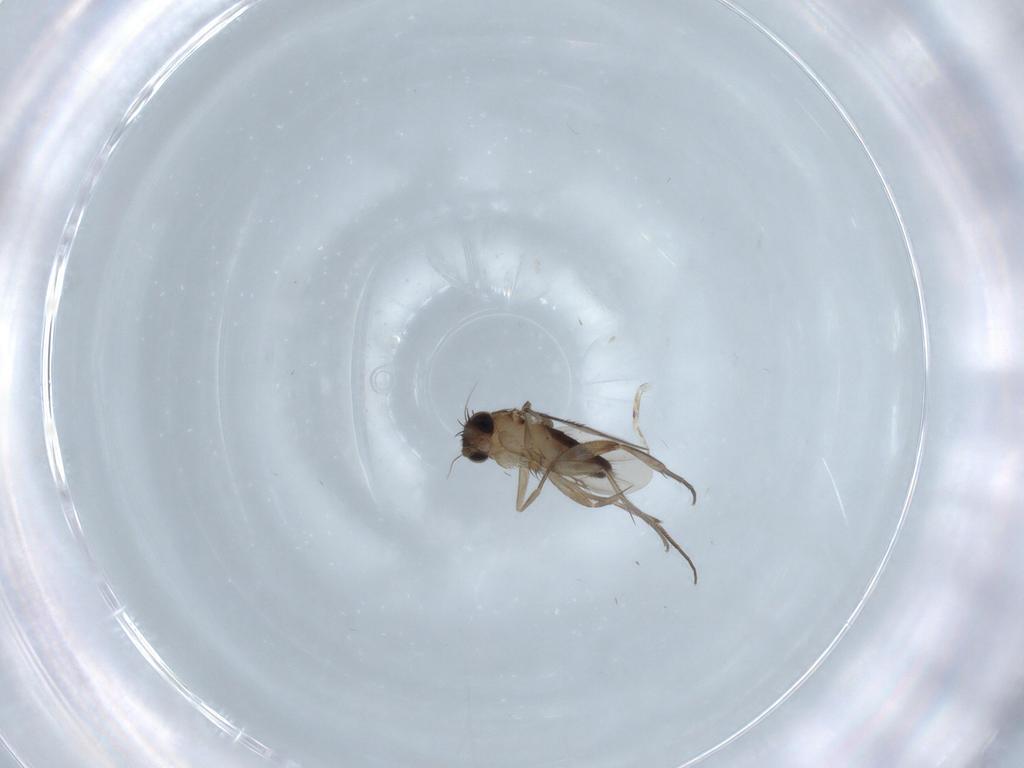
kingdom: Animalia
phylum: Arthropoda
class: Insecta
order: Diptera
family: Phoridae
